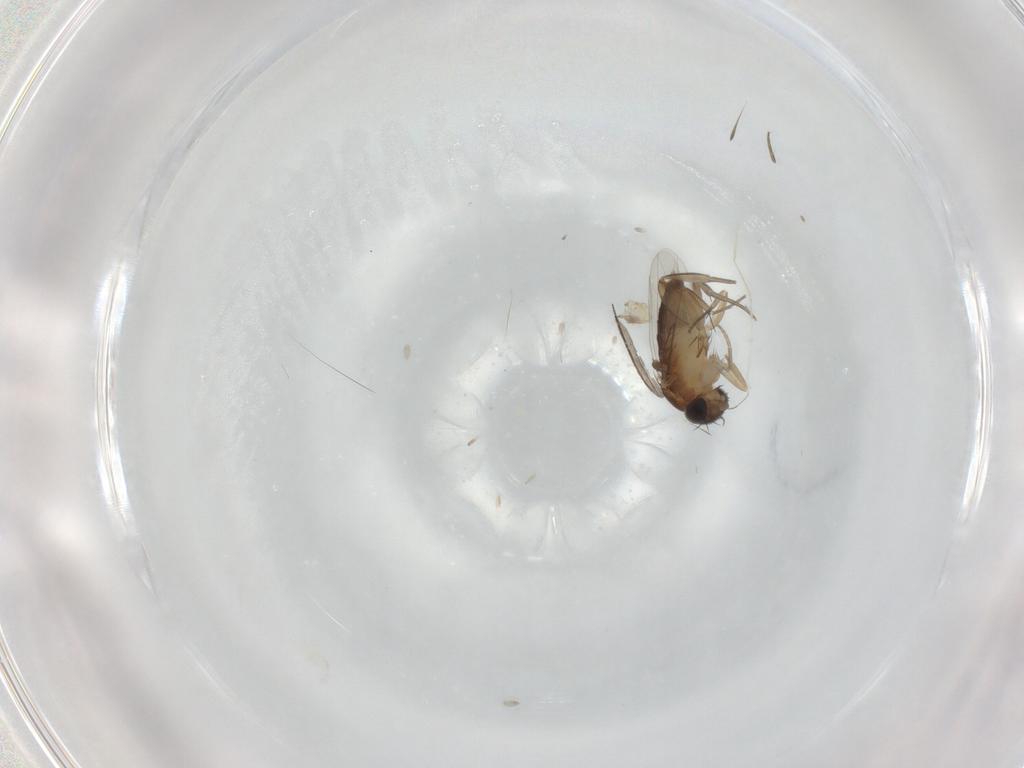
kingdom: Animalia
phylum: Arthropoda
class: Insecta
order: Diptera
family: Phoridae
